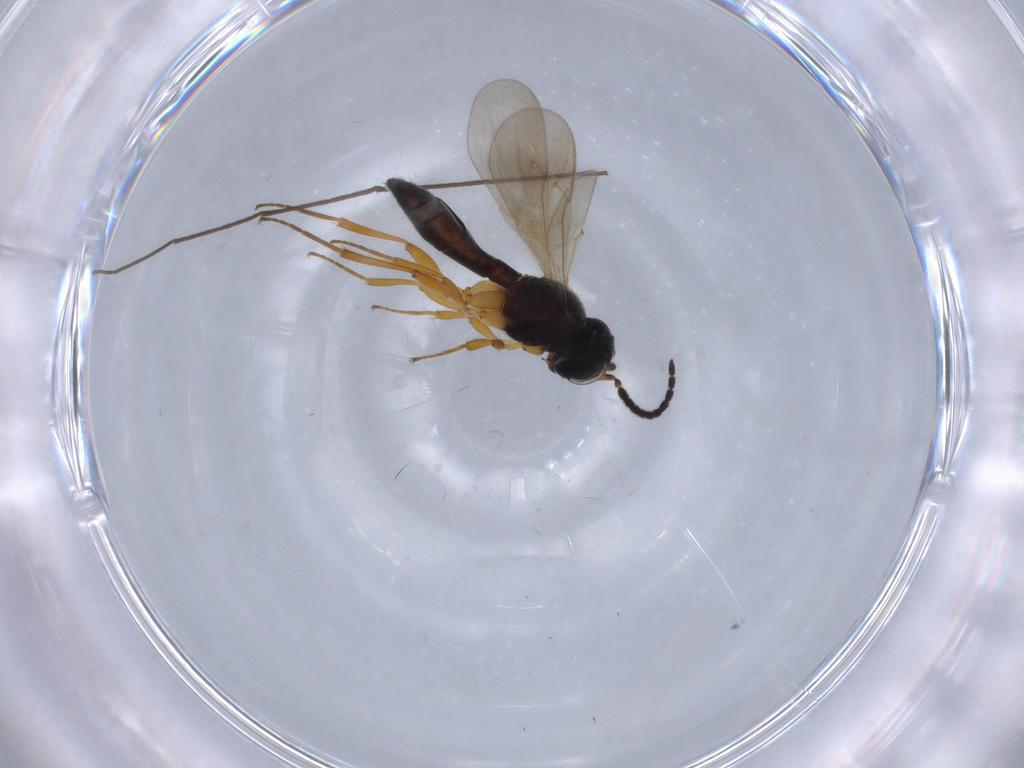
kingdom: Animalia
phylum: Arthropoda
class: Insecta
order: Hymenoptera
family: Scelionidae
